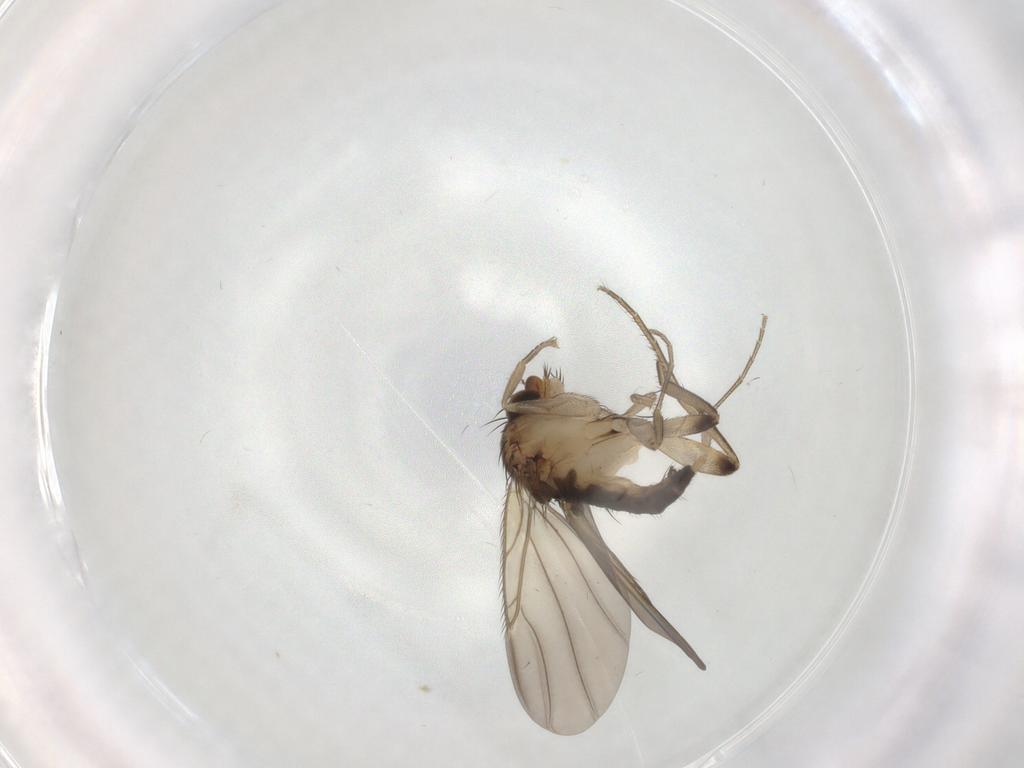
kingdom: Animalia
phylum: Arthropoda
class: Insecta
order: Diptera
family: Phoridae
